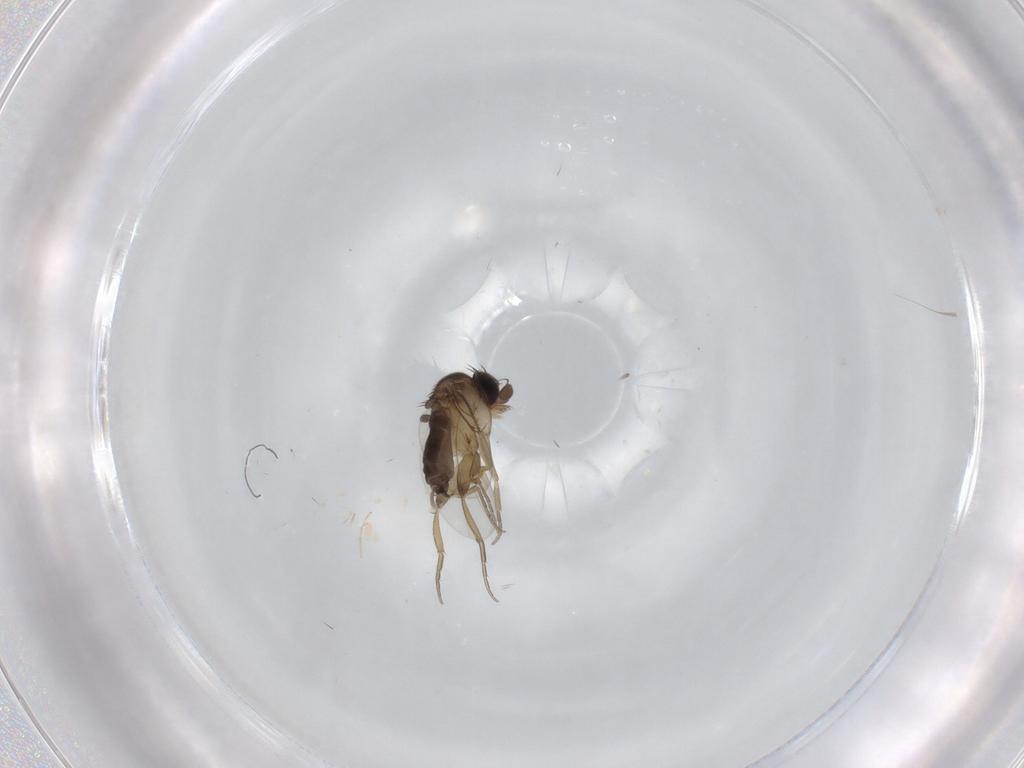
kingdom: Animalia
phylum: Arthropoda
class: Insecta
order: Diptera
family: Phoridae
